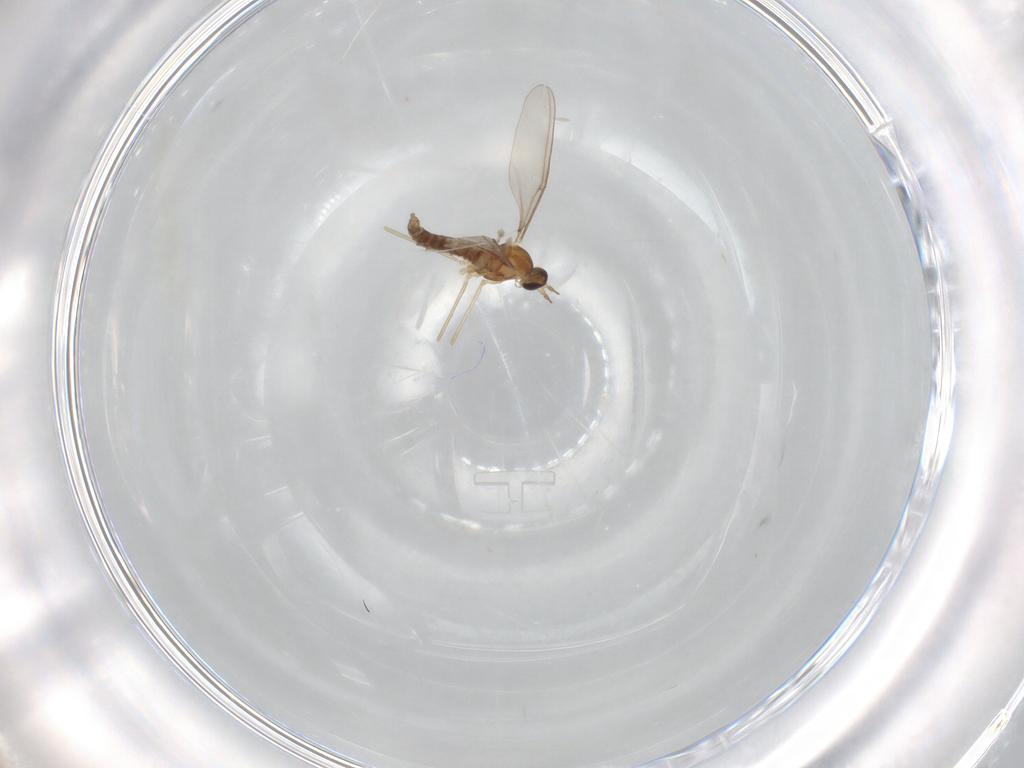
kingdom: Animalia
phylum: Arthropoda
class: Insecta
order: Diptera
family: Cecidomyiidae
